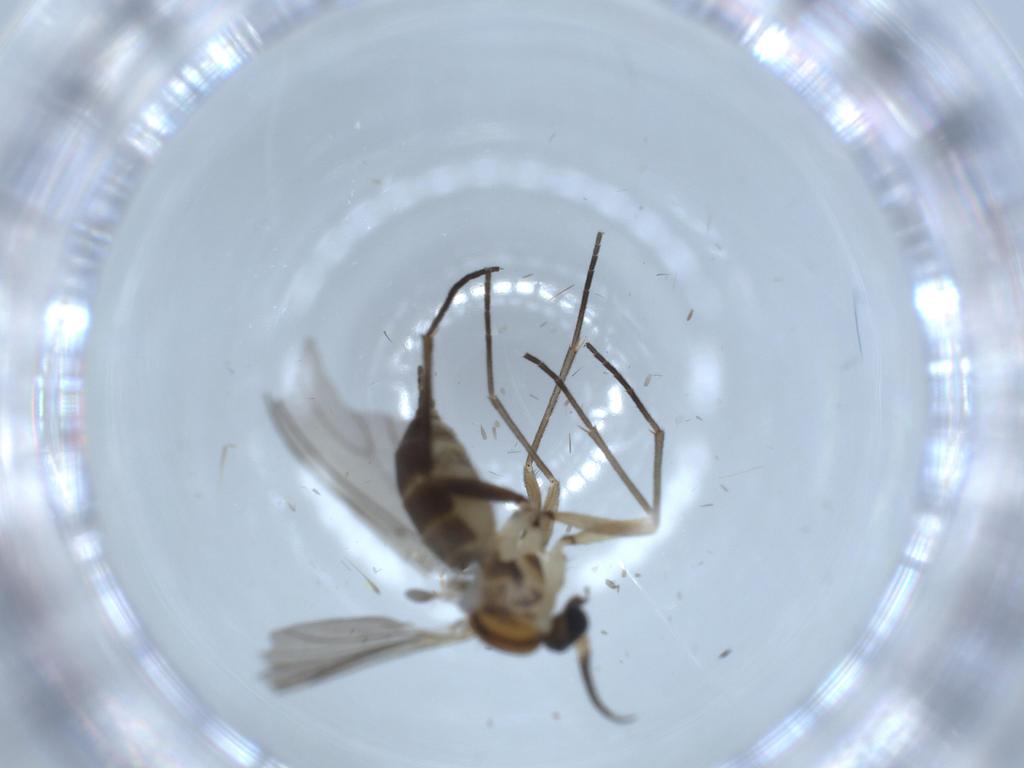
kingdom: Animalia
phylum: Arthropoda
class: Insecta
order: Diptera
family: Sciaridae
